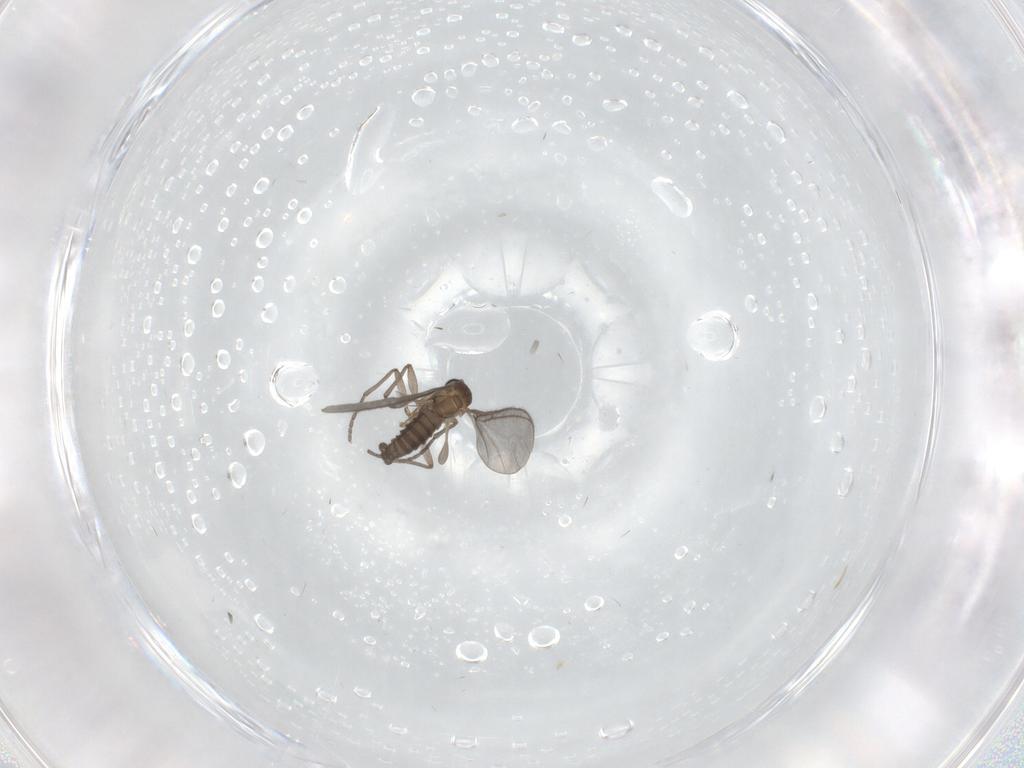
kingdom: Animalia
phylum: Arthropoda
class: Insecta
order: Diptera
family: Sciaridae
